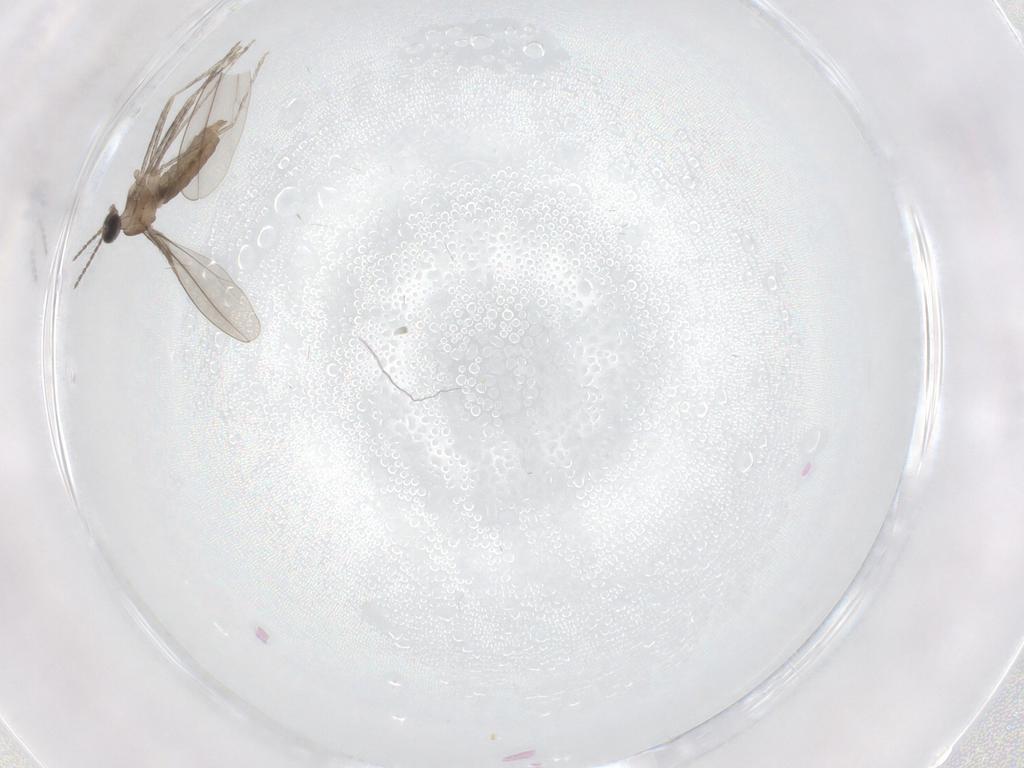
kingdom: Animalia
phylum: Arthropoda
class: Insecta
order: Diptera
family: Cecidomyiidae
